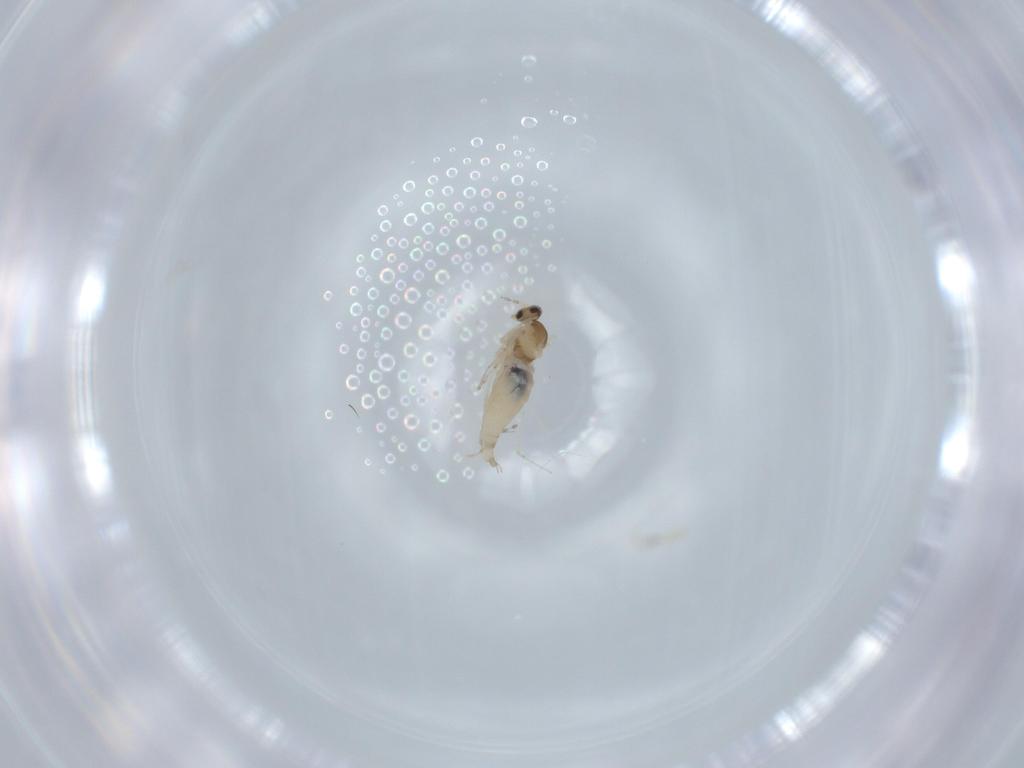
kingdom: Animalia
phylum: Arthropoda
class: Insecta
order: Diptera
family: Cecidomyiidae
